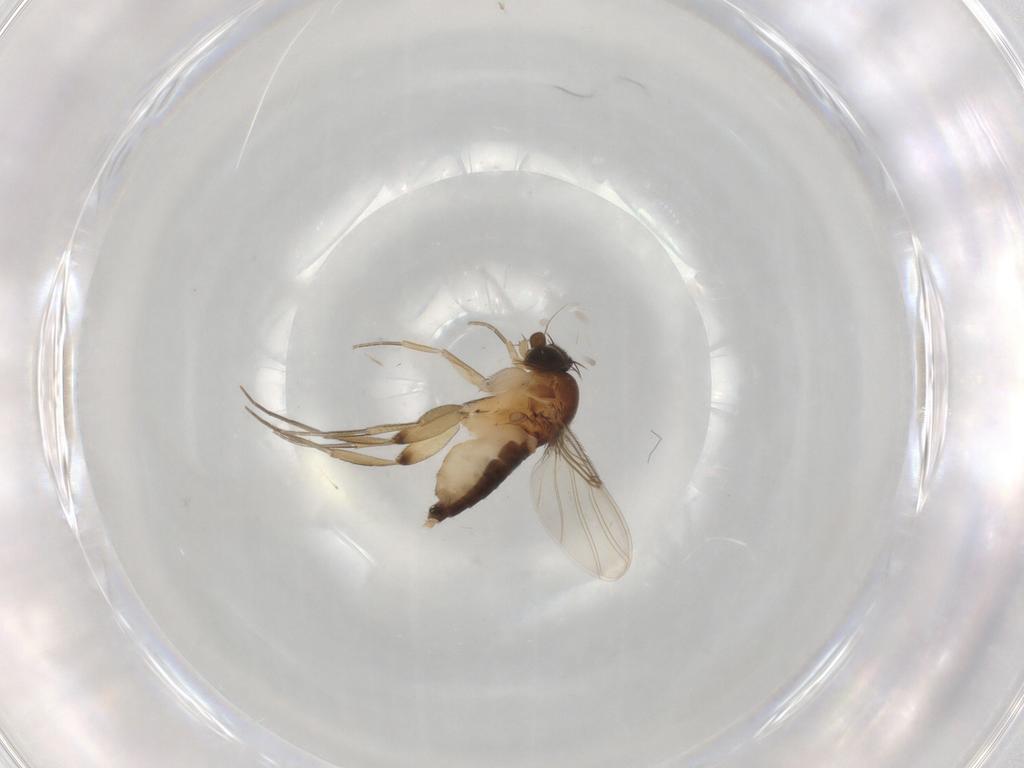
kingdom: Animalia
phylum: Arthropoda
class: Insecta
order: Diptera
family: Phoridae
